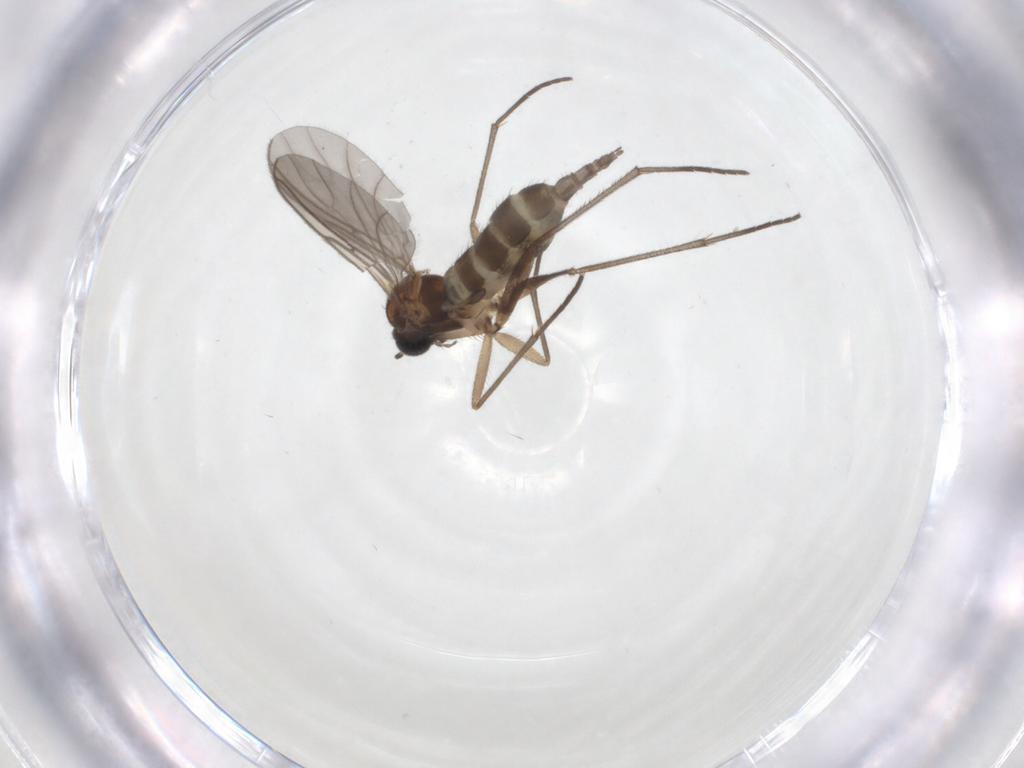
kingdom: Animalia
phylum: Arthropoda
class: Insecta
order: Diptera
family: Sciaridae
